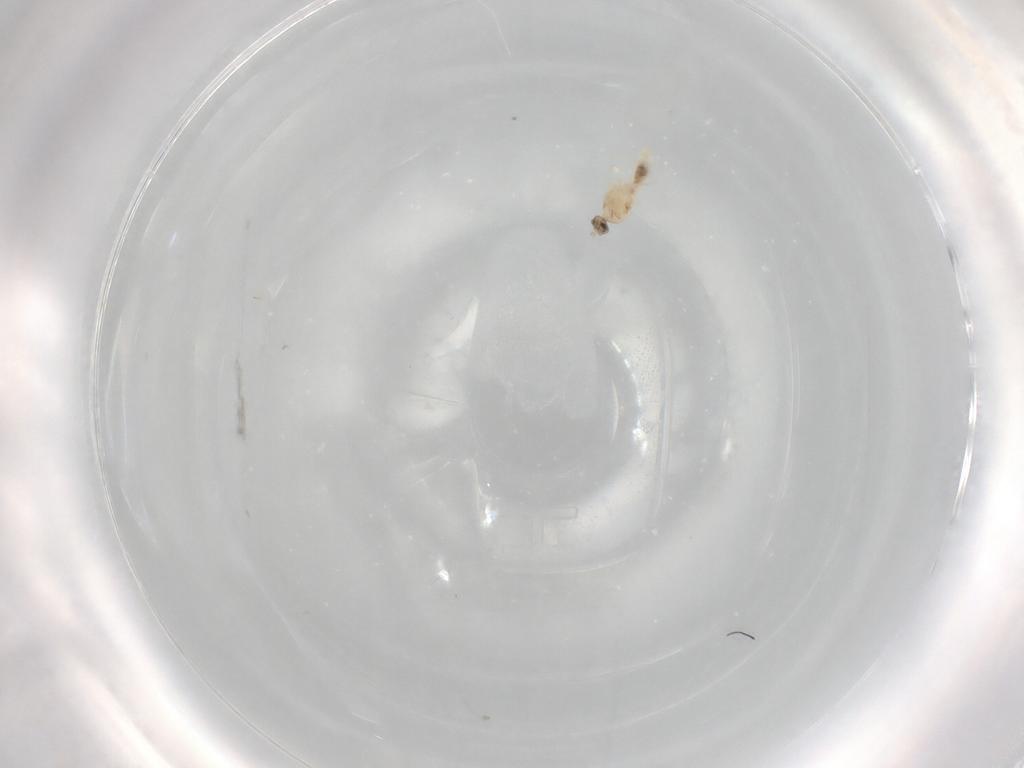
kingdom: Animalia
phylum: Arthropoda
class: Insecta
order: Diptera
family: Cecidomyiidae
